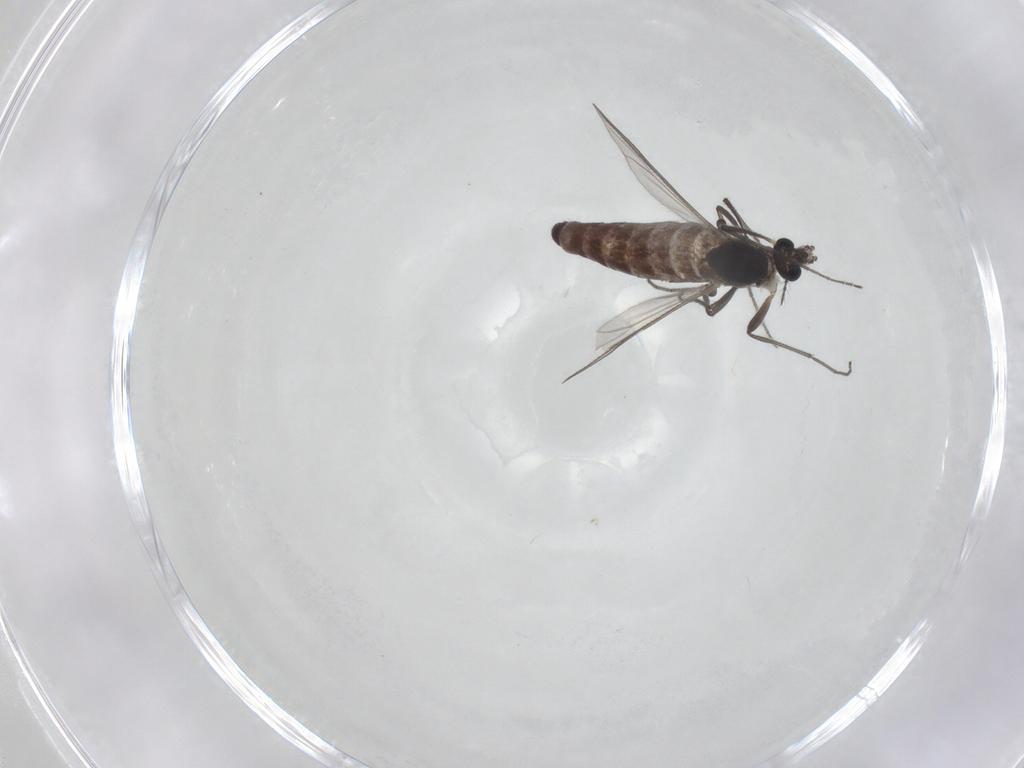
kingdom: Animalia
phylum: Arthropoda
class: Insecta
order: Diptera
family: Chironomidae
